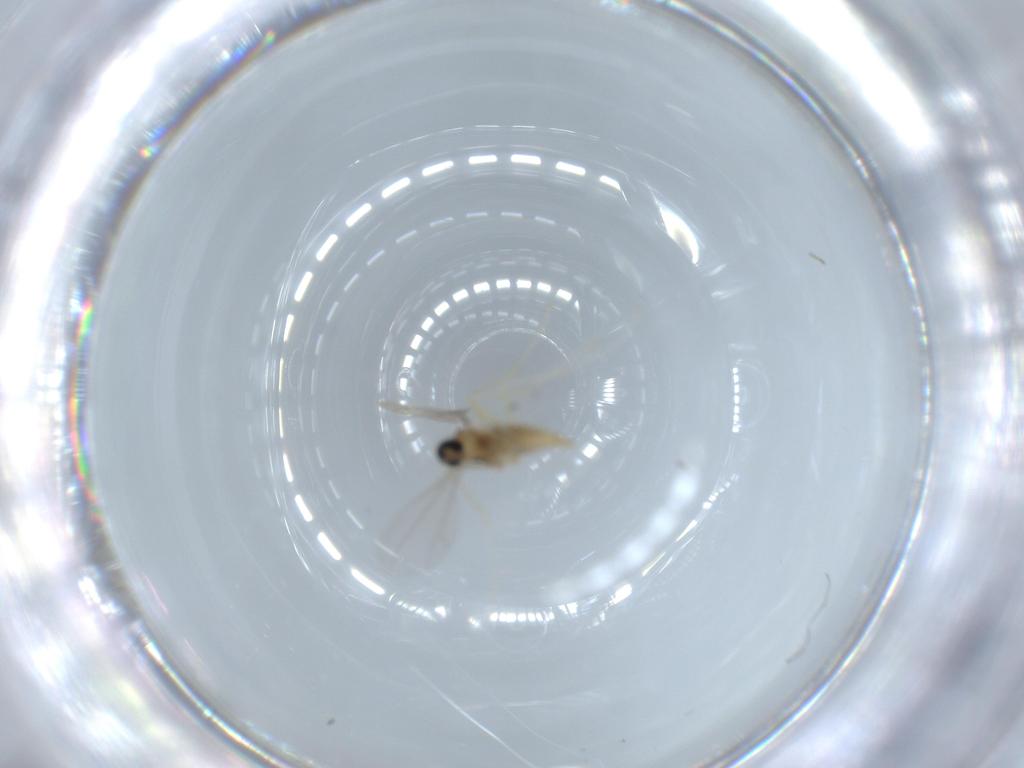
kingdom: Animalia
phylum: Arthropoda
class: Insecta
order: Diptera
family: Cecidomyiidae
